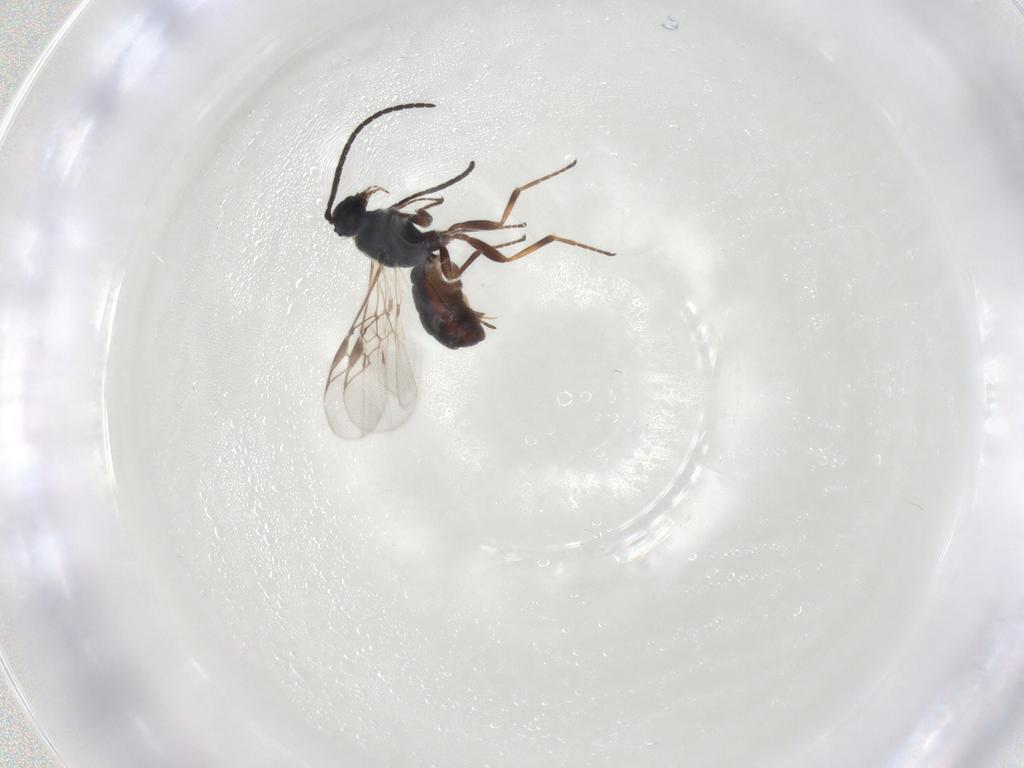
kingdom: Animalia
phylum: Arthropoda
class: Insecta
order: Hymenoptera
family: Braconidae
